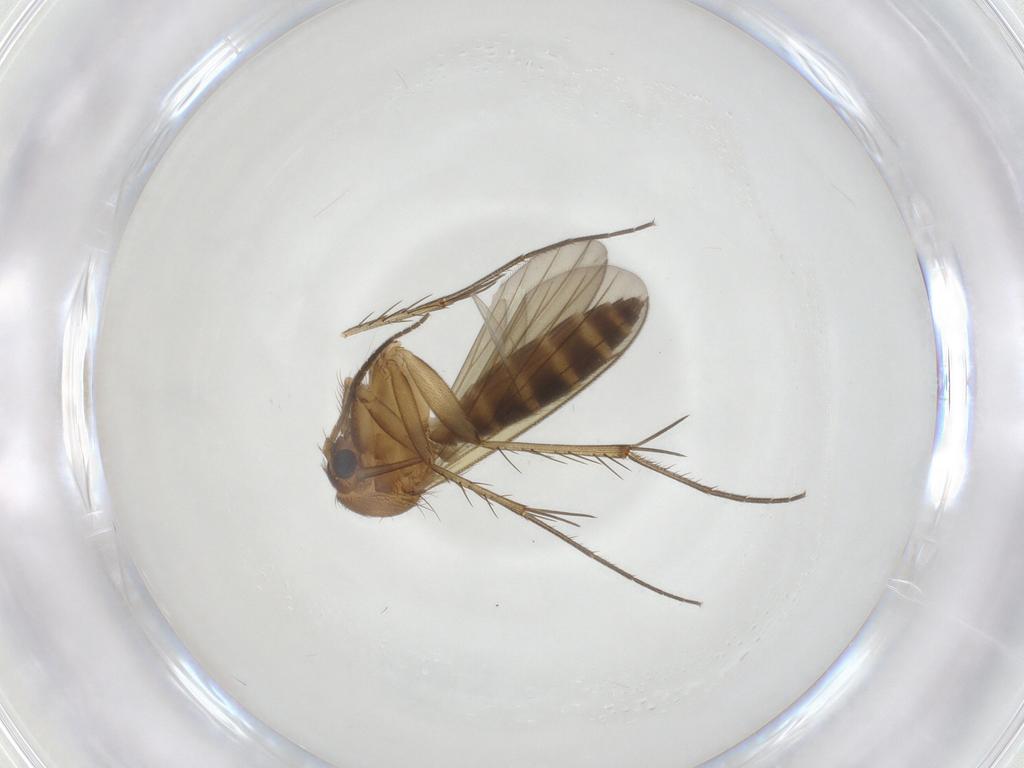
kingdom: Animalia
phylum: Arthropoda
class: Insecta
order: Diptera
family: Mycetophilidae
